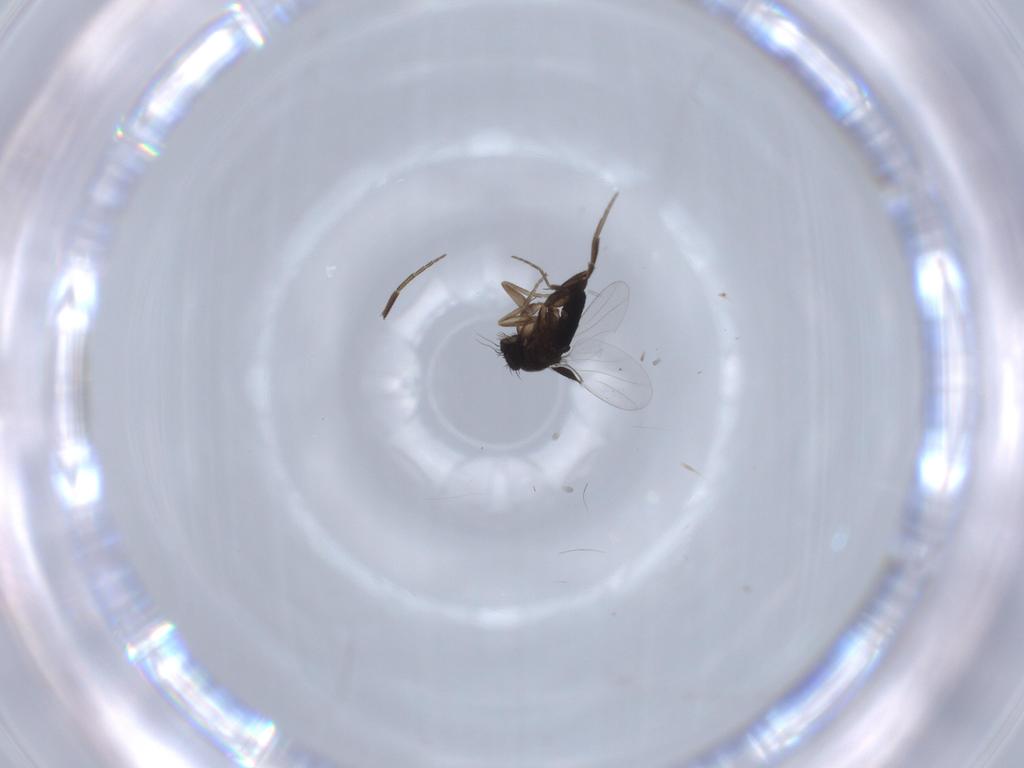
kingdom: Animalia
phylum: Arthropoda
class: Insecta
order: Diptera
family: Phoridae
